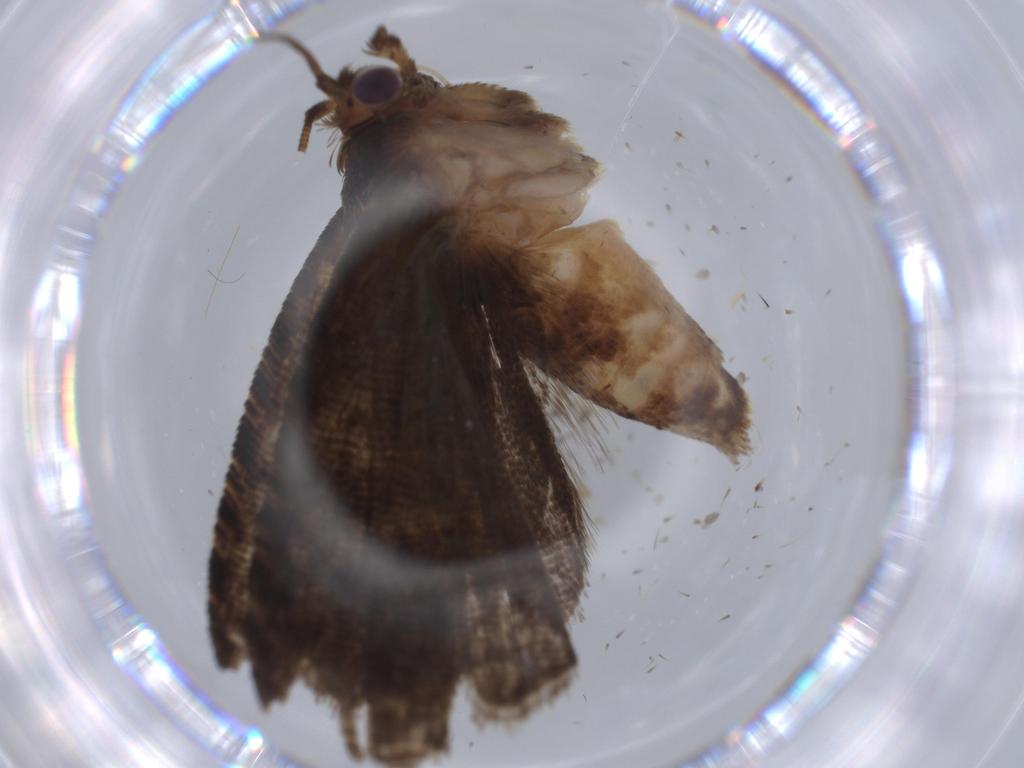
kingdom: Animalia
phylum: Arthropoda
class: Insecta
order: Lepidoptera
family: Tortricidae
